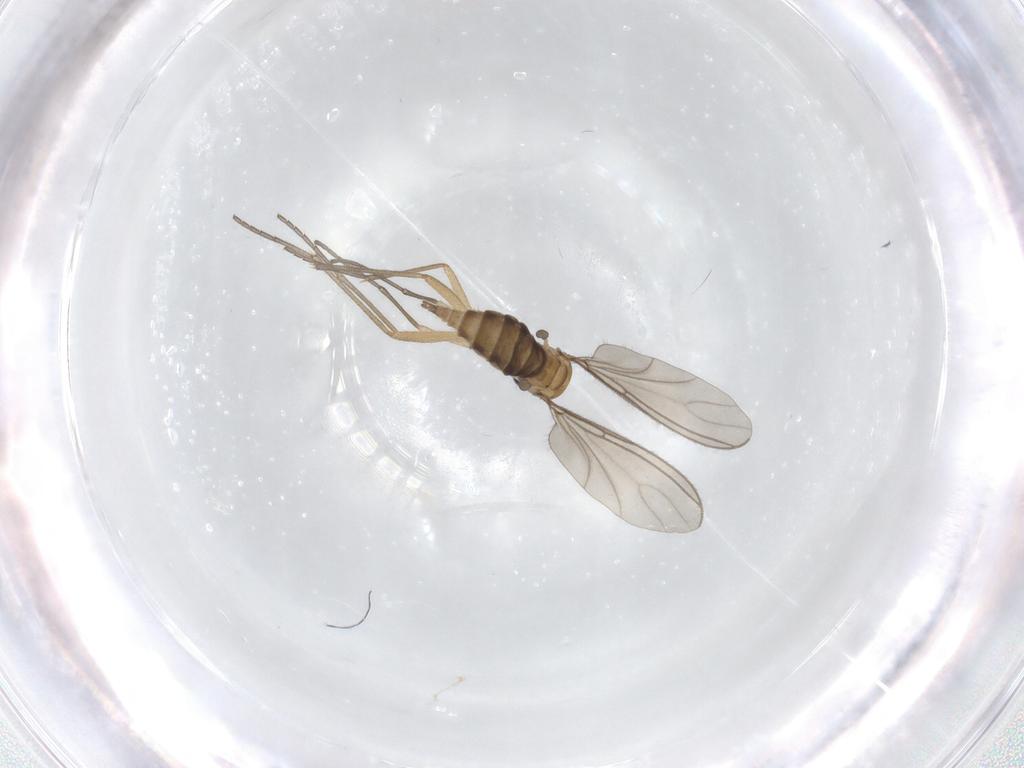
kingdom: Animalia
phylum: Arthropoda
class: Insecta
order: Diptera
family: Sciaridae
